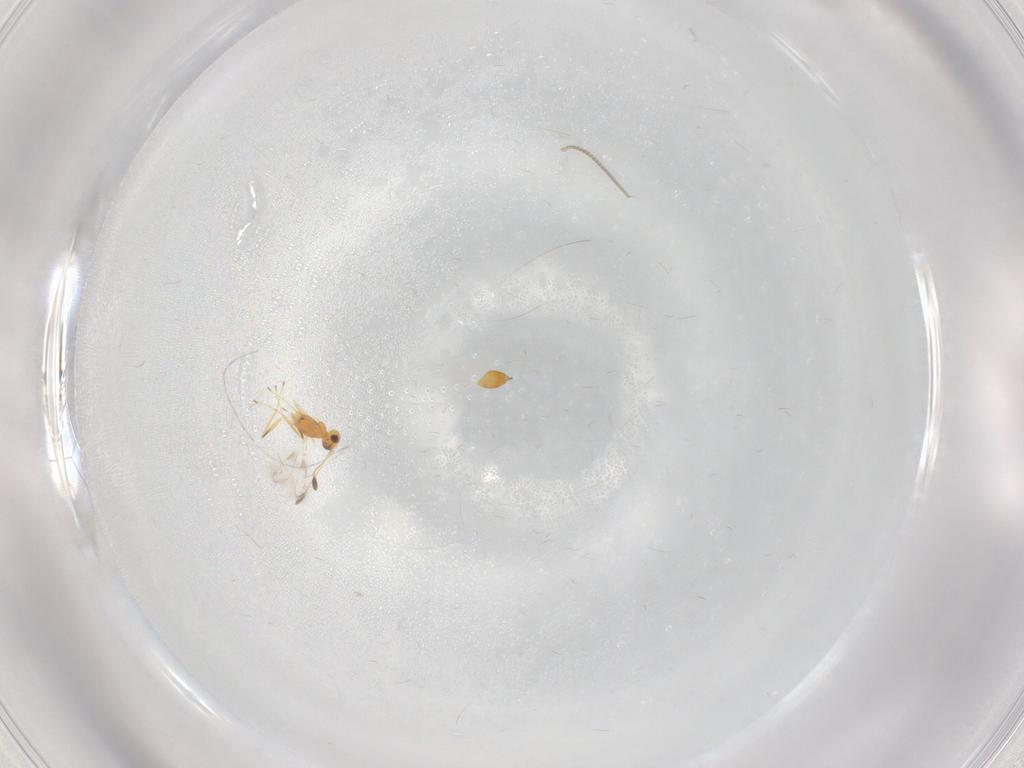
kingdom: Animalia
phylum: Arthropoda
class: Insecta
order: Hymenoptera
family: Mymaridae
